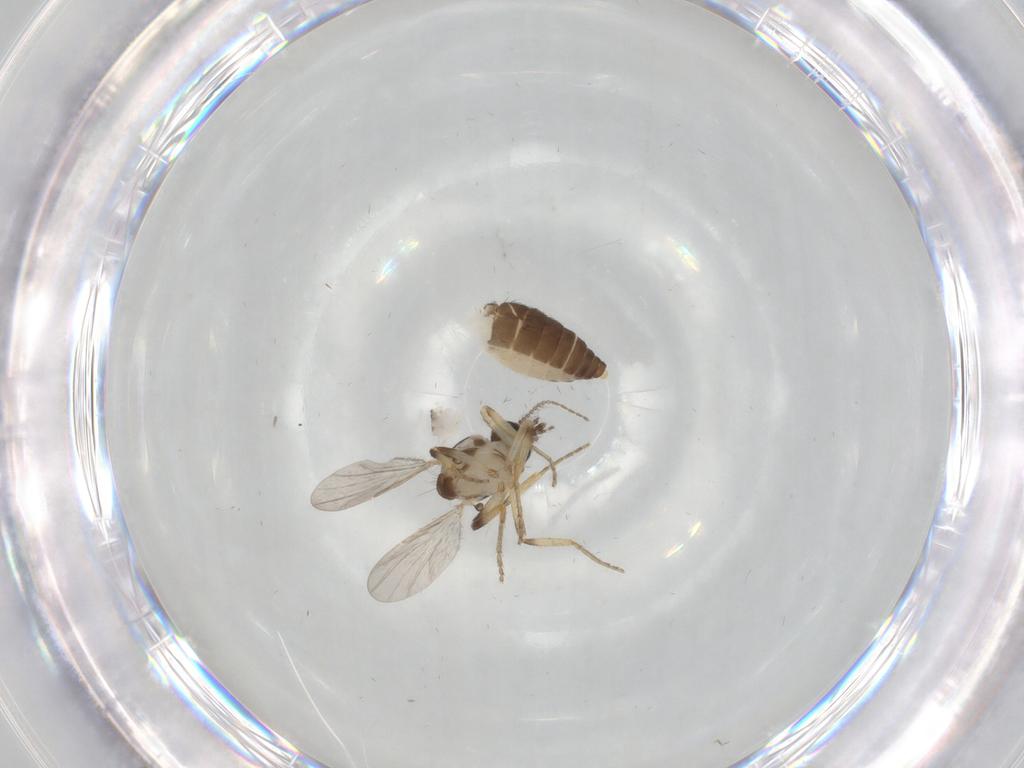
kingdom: Animalia
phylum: Arthropoda
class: Insecta
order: Diptera
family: Ceratopogonidae
